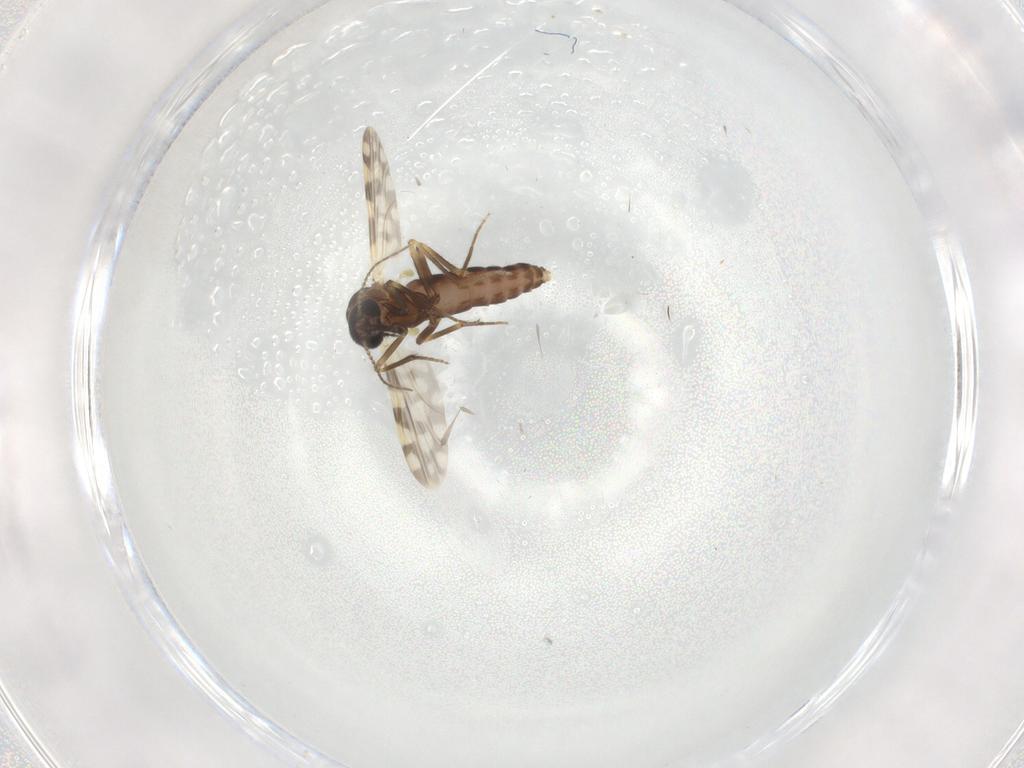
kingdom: Animalia
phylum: Arthropoda
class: Insecta
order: Diptera
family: Ceratopogonidae
